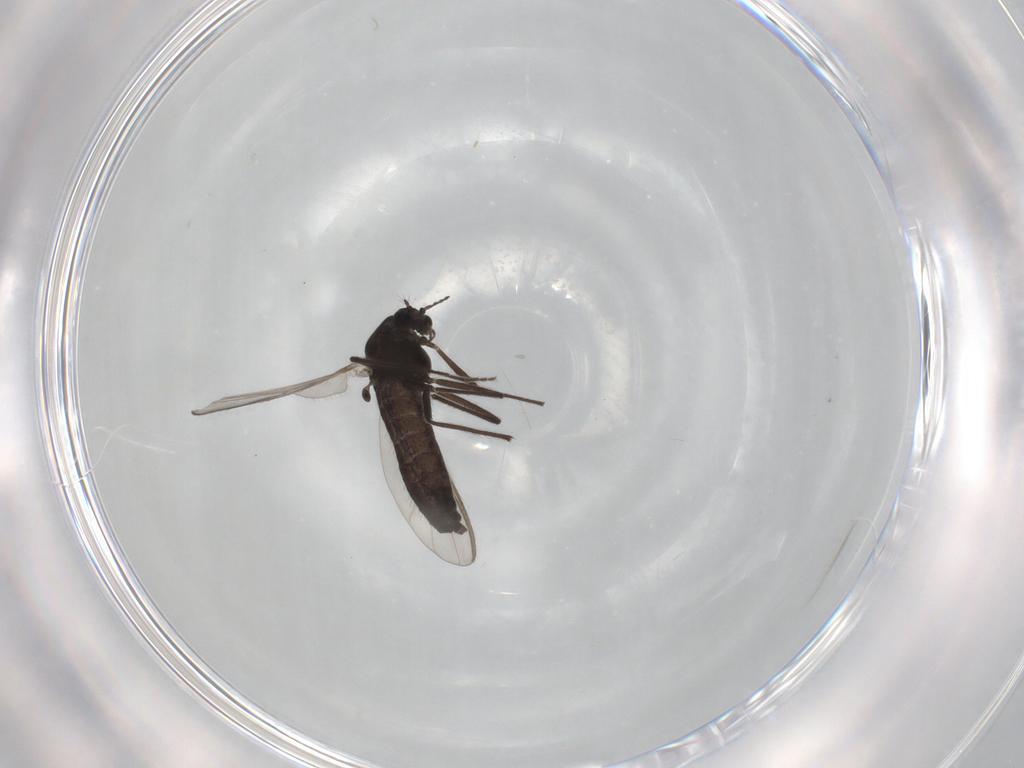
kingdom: Animalia
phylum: Arthropoda
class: Insecta
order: Diptera
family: Chironomidae
